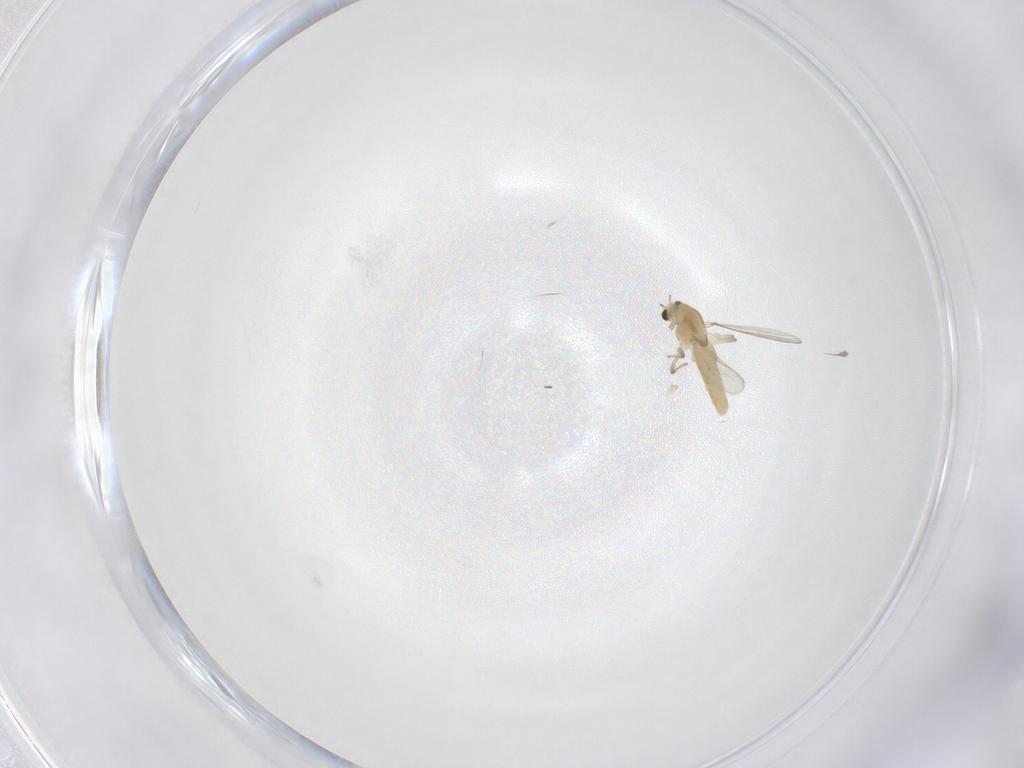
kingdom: Animalia
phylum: Arthropoda
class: Insecta
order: Diptera
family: Chironomidae
